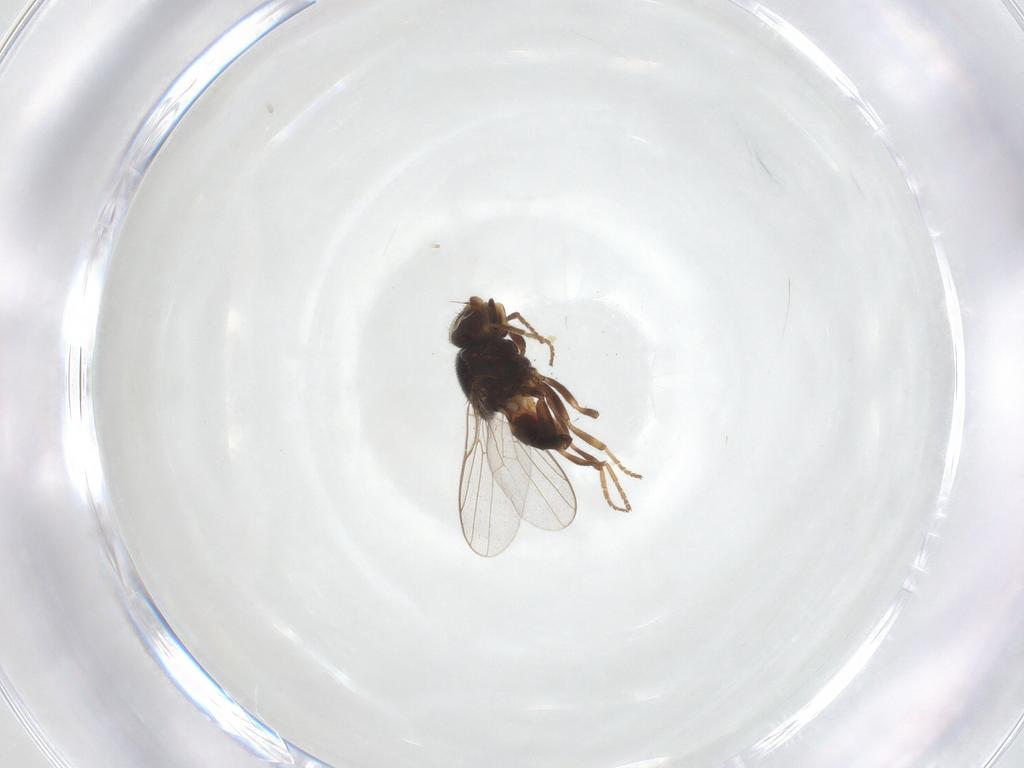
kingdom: Animalia
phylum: Arthropoda
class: Insecta
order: Diptera
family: Chloropidae
